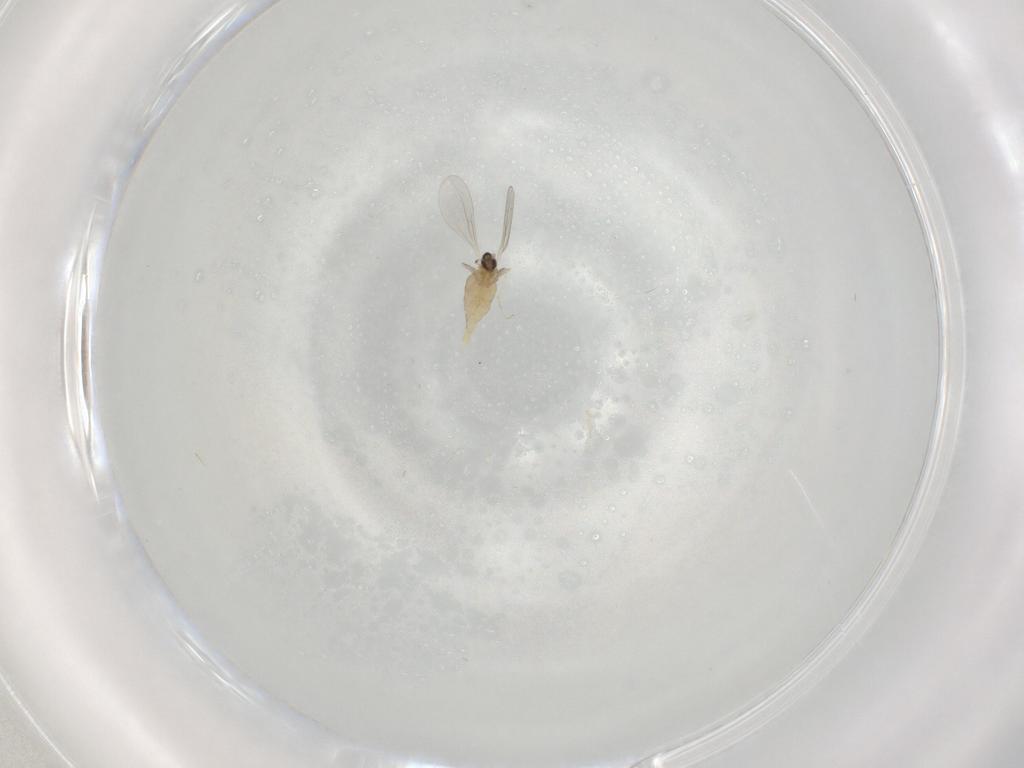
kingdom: Animalia
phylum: Arthropoda
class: Insecta
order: Diptera
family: Cecidomyiidae
